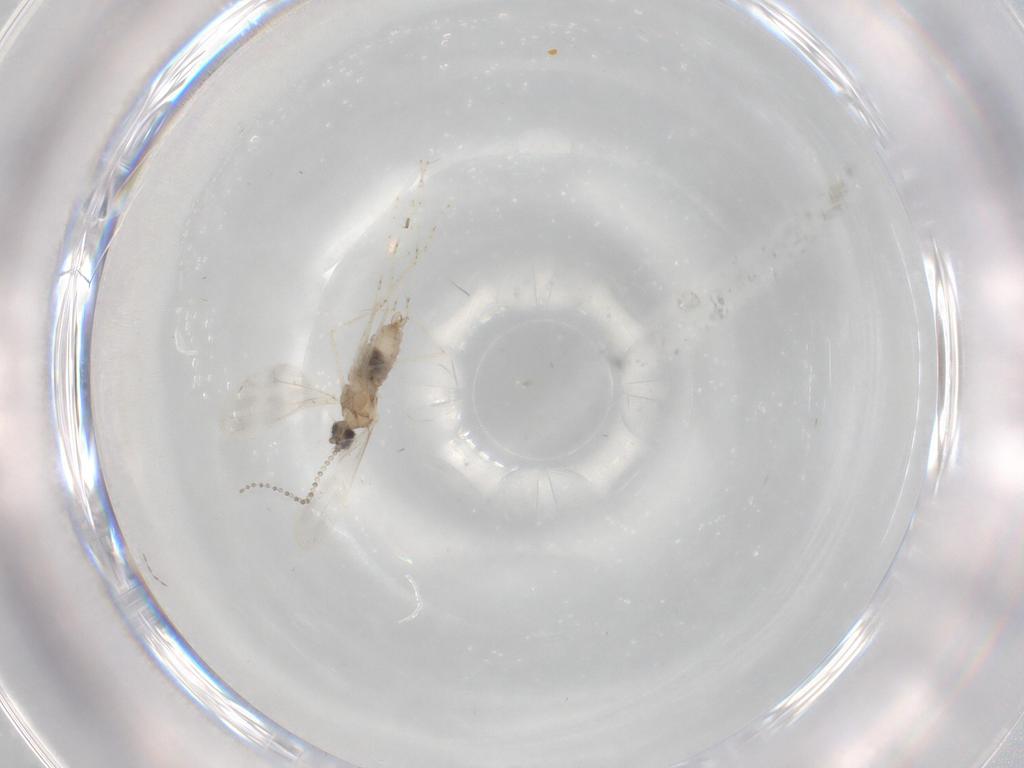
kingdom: Animalia
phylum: Arthropoda
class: Insecta
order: Diptera
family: Cecidomyiidae
